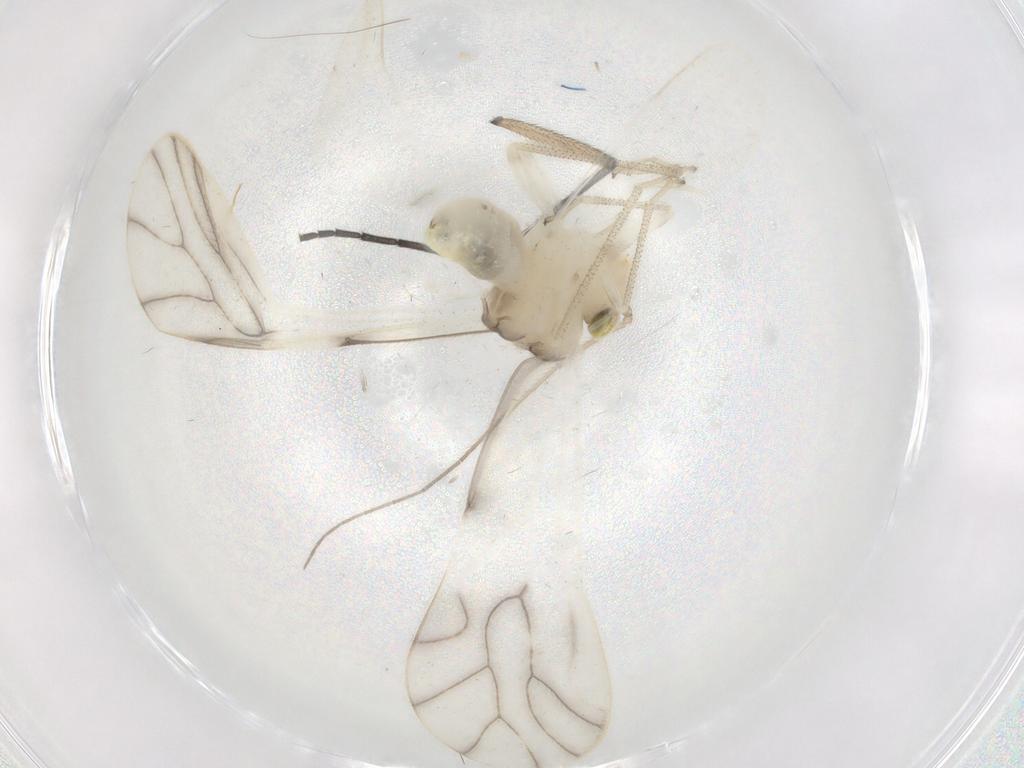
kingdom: Animalia
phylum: Arthropoda
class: Insecta
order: Psocodea
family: Caeciliusidae
